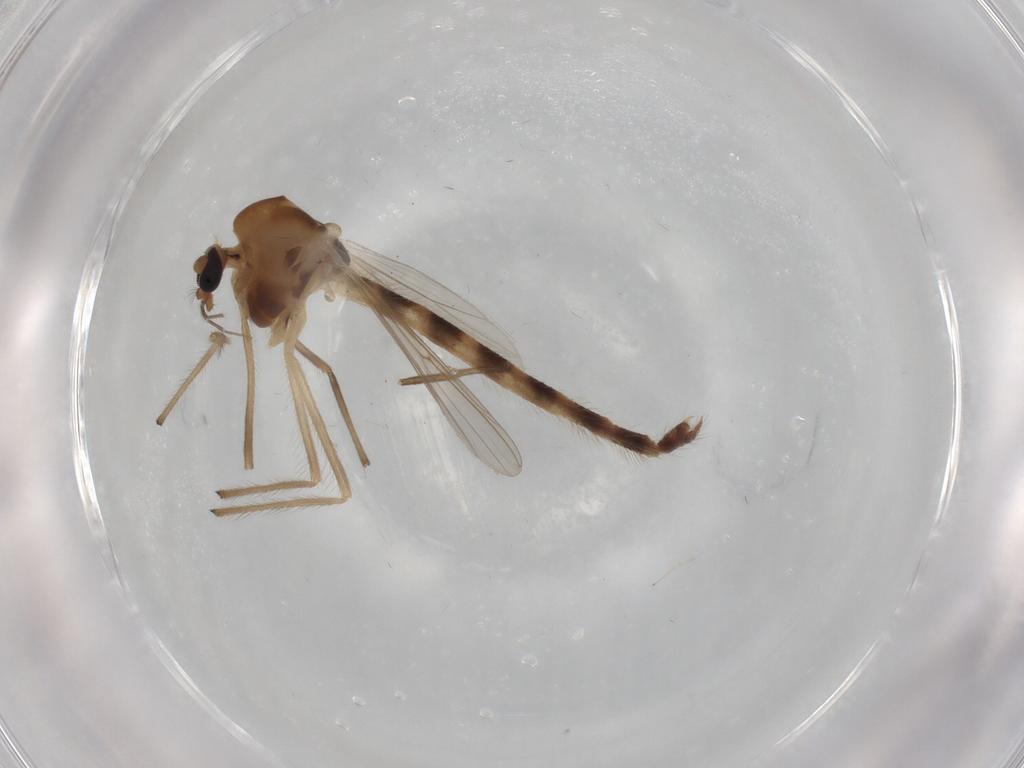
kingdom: Animalia
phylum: Arthropoda
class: Insecta
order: Diptera
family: Chironomidae
